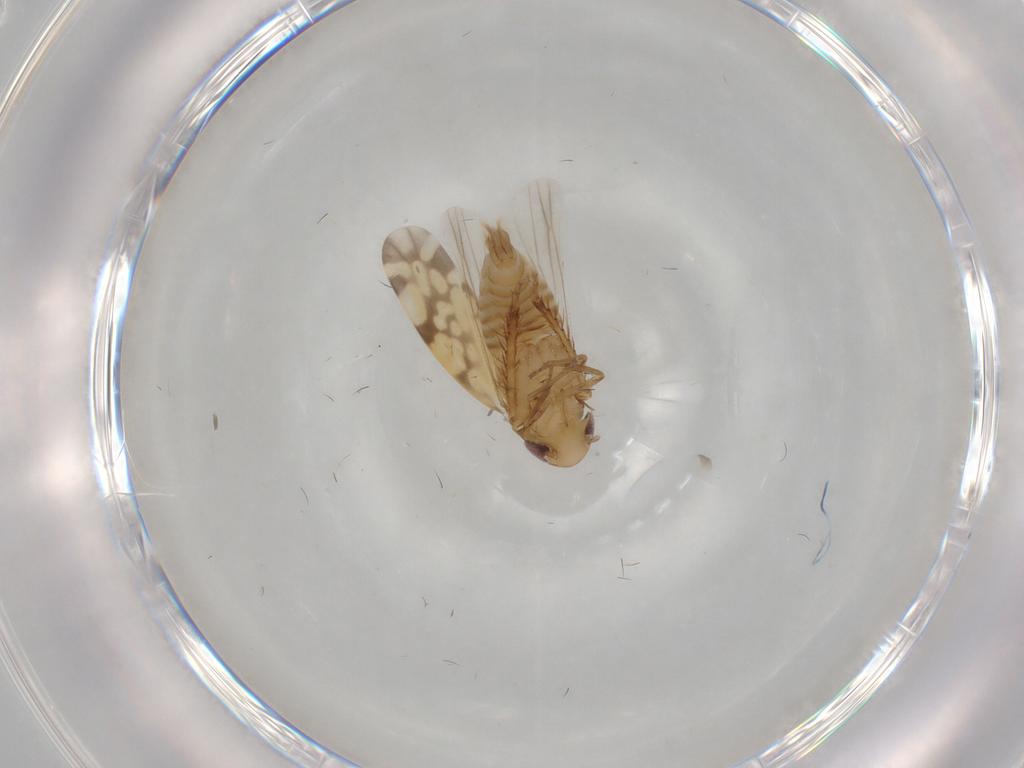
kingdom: Animalia
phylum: Arthropoda
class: Insecta
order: Hemiptera
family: Cicadellidae
